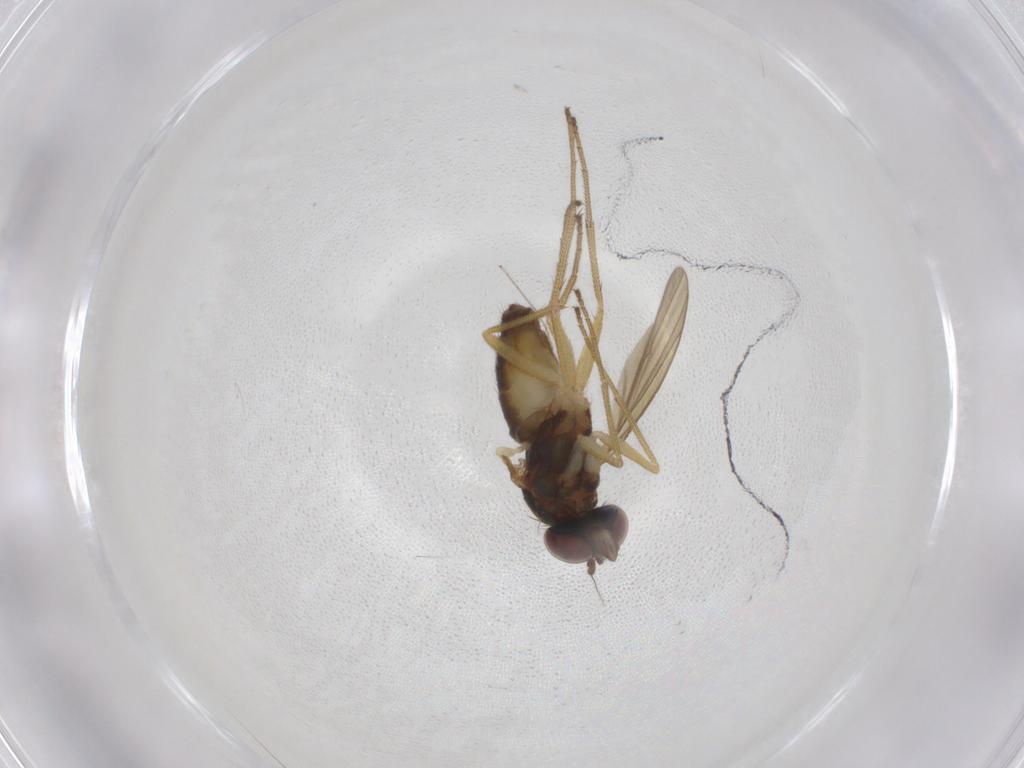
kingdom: Animalia
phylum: Arthropoda
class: Insecta
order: Diptera
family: Dolichopodidae
